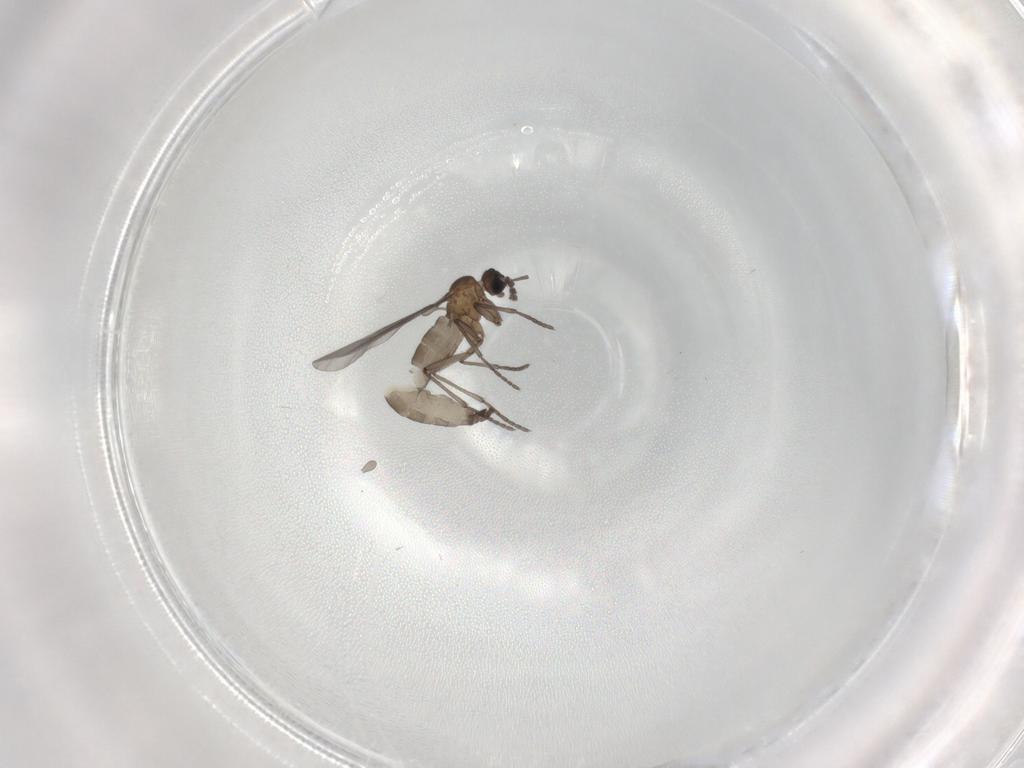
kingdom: Animalia
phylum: Arthropoda
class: Insecta
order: Diptera
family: Sciaridae
